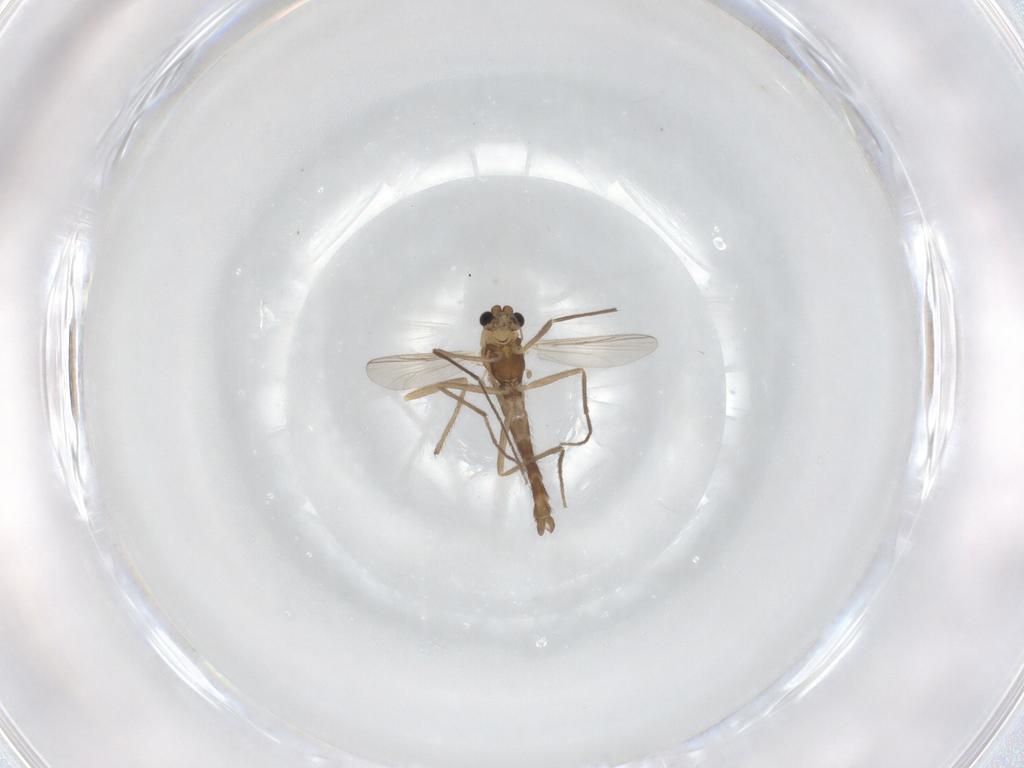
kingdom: Animalia
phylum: Arthropoda
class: Insecta
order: Diptera
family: Chironomidae
